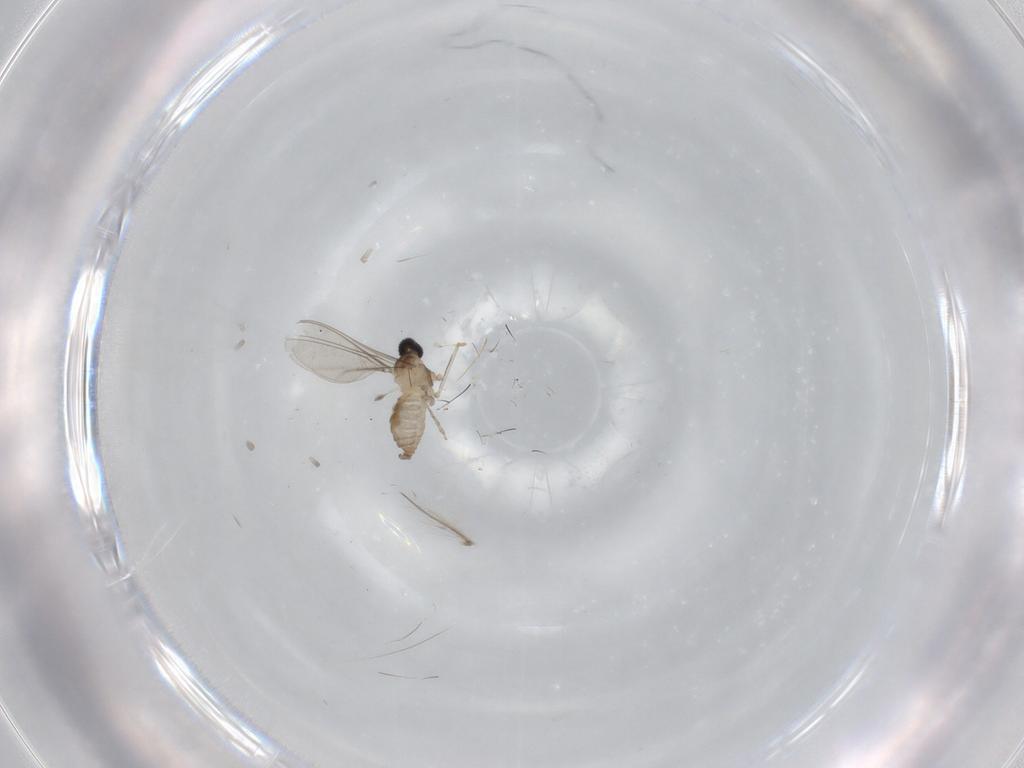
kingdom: Animalia
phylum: Arthropoda
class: Insecta
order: Diptera
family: Cecidomyiidae
